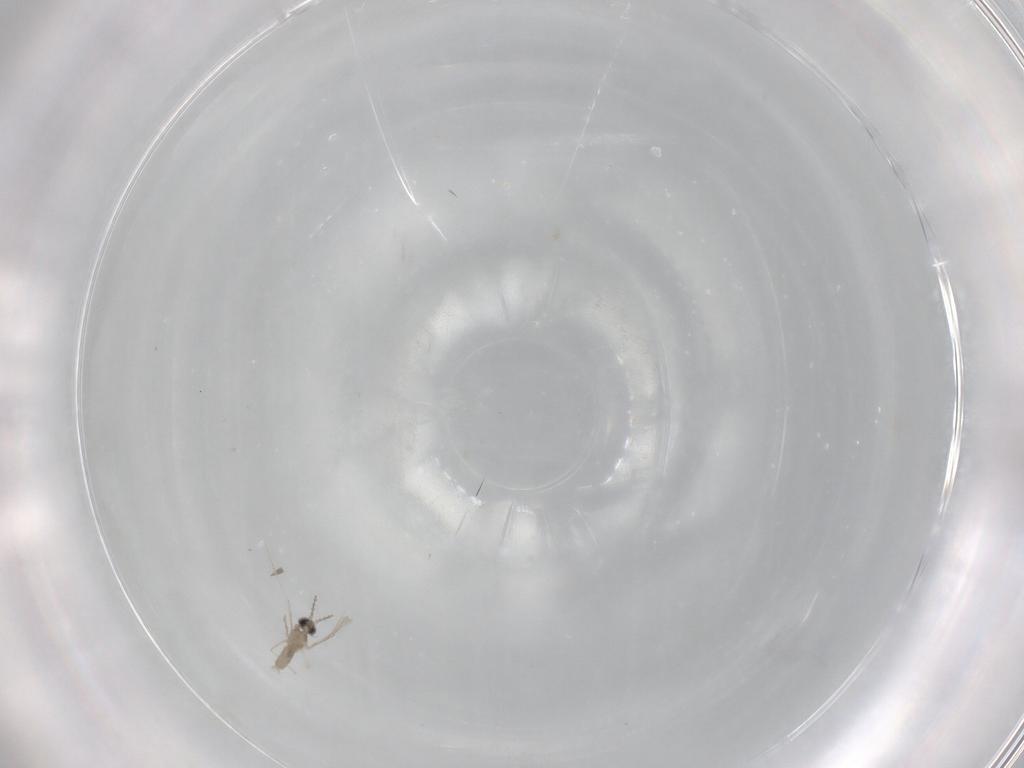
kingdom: Animalia
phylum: Arthropoda
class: Insecta
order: Diptera
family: Cecidomyiidae
